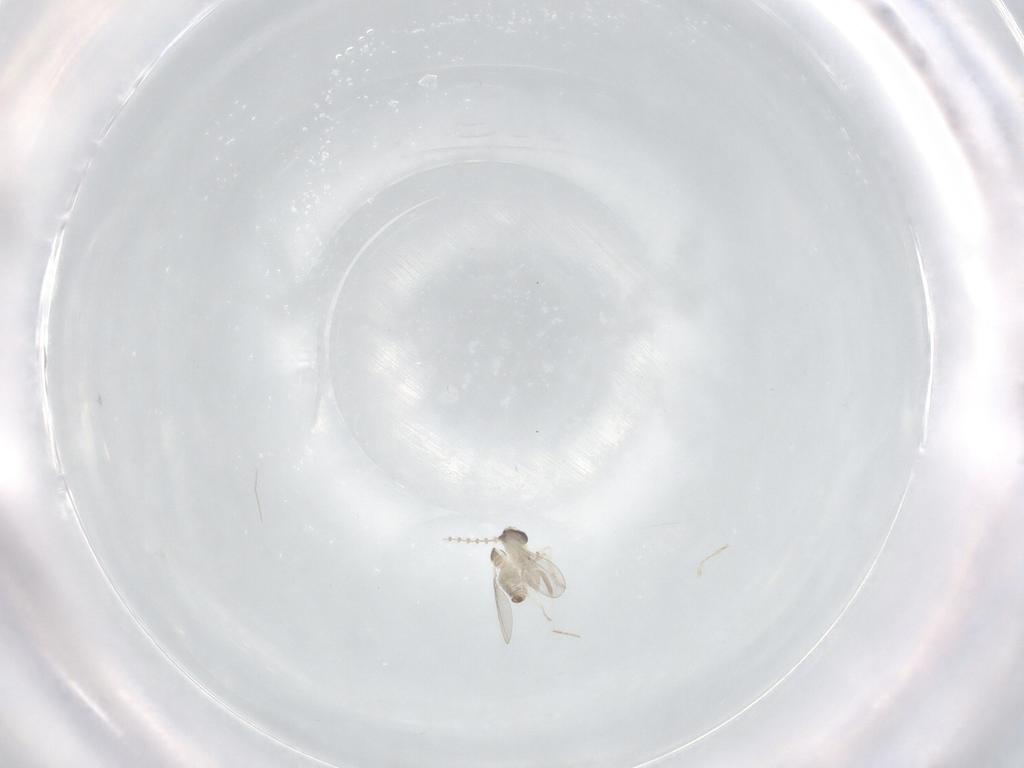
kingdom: Animalia
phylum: Arthropoda
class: Insecta
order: Diptera
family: Cecidomyiidae
